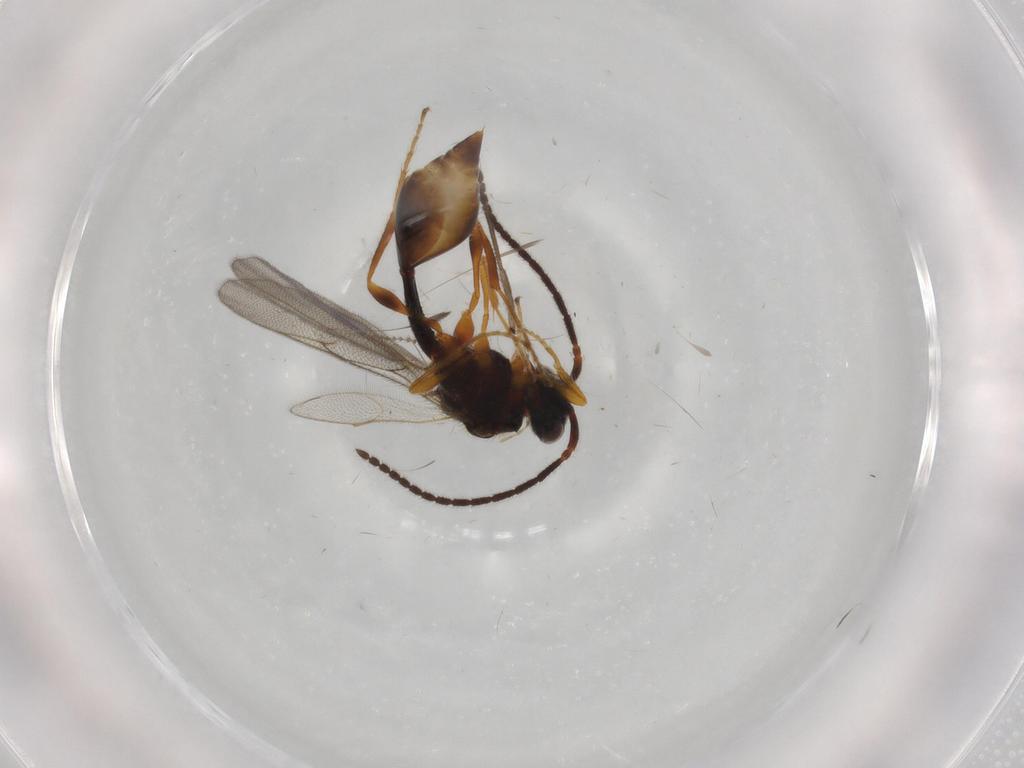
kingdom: Animalia
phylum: Arthropoda
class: Insecta
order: Hymenoptera
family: Diapriidae
